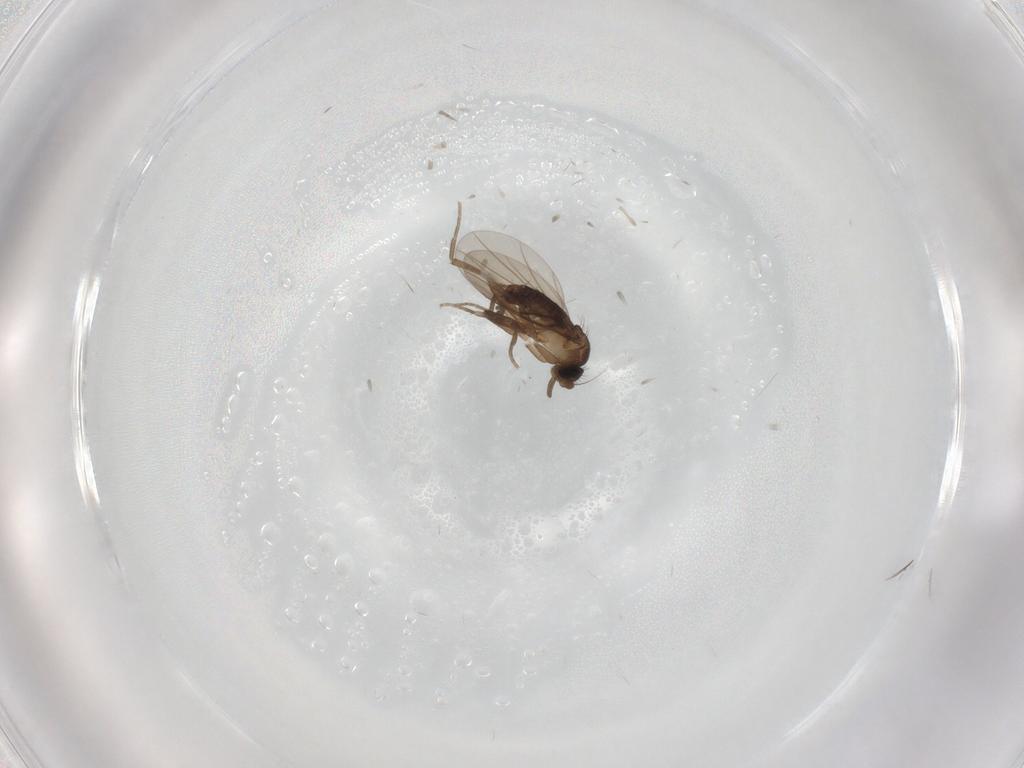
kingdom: Animalia
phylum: Arthropoda
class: Insecta
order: Diptera
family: Limoniidae
